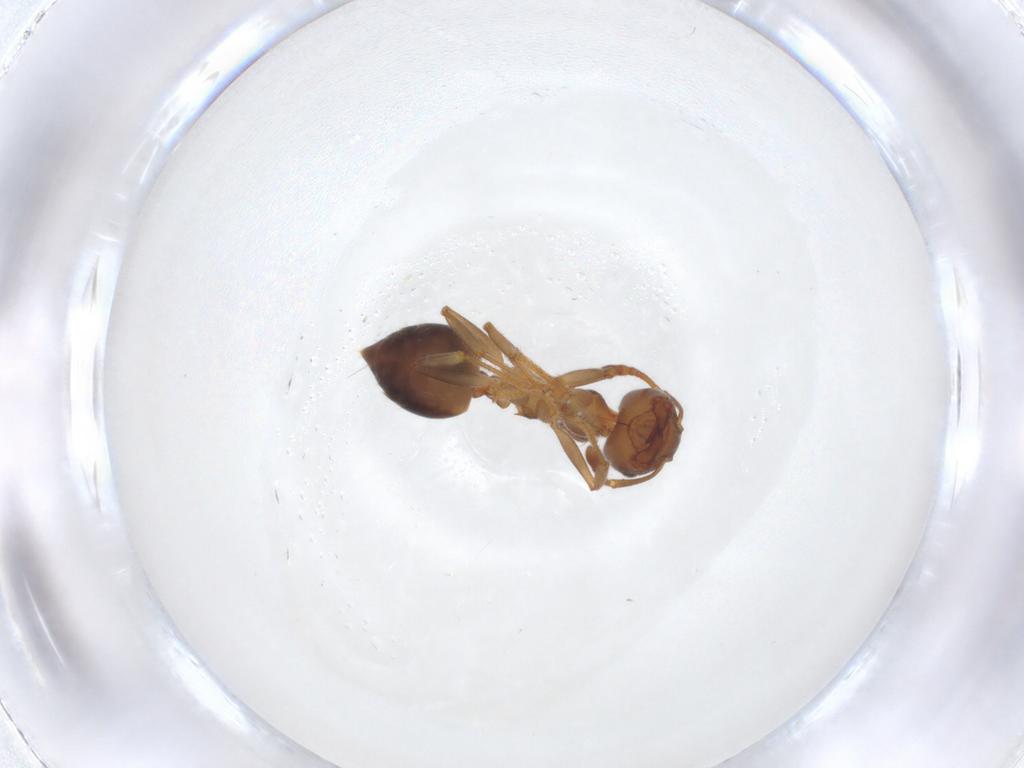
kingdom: Animalia
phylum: Arthropoda
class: Insecta
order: Hymenoptera
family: Formicidae
